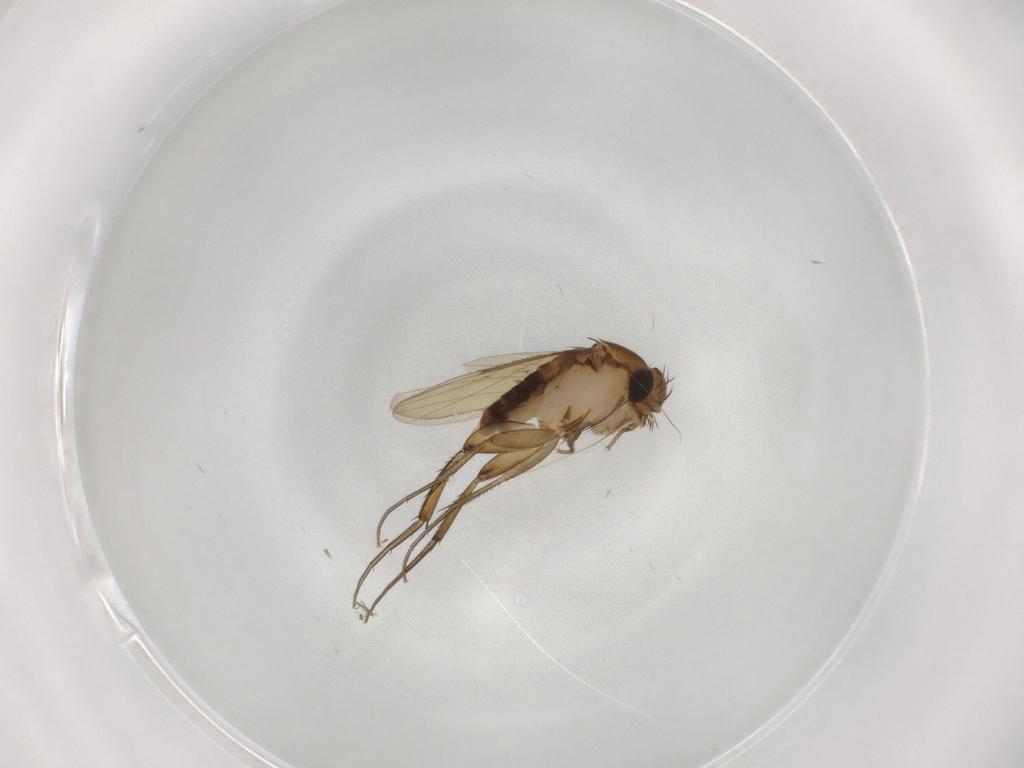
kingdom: Animalia
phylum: Arthropoda
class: Insecta
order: Diptera
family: Phoridae
